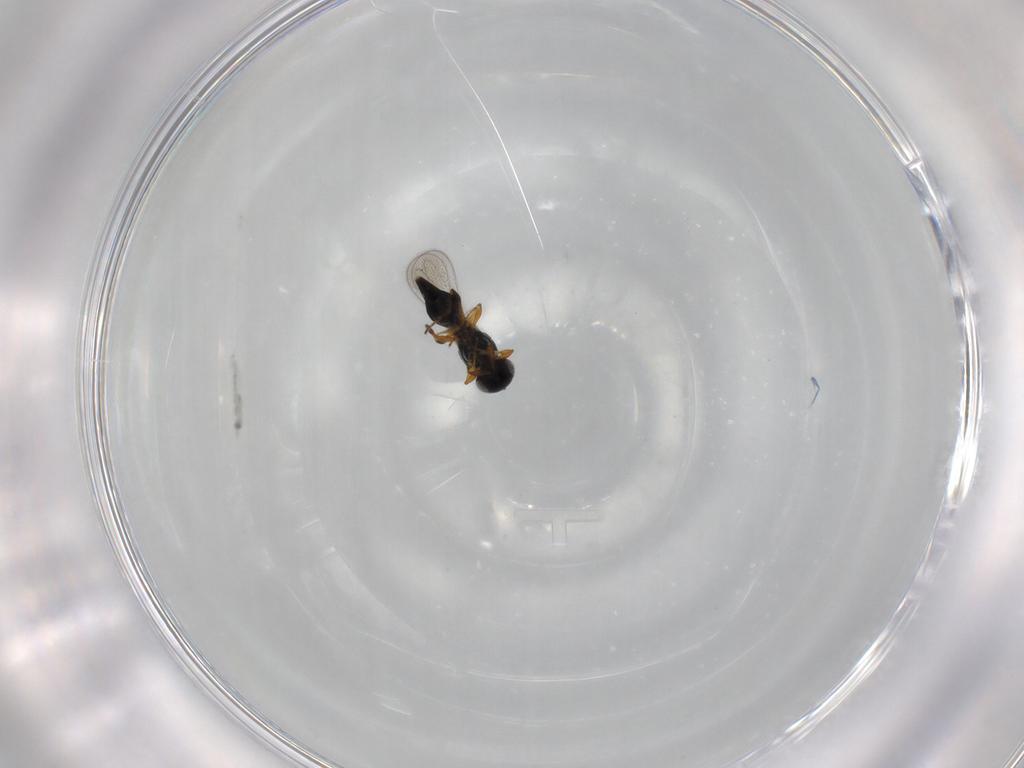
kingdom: Animalia
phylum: Arthropoda
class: Insecta
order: Hymenoptera
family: Platygastridae
